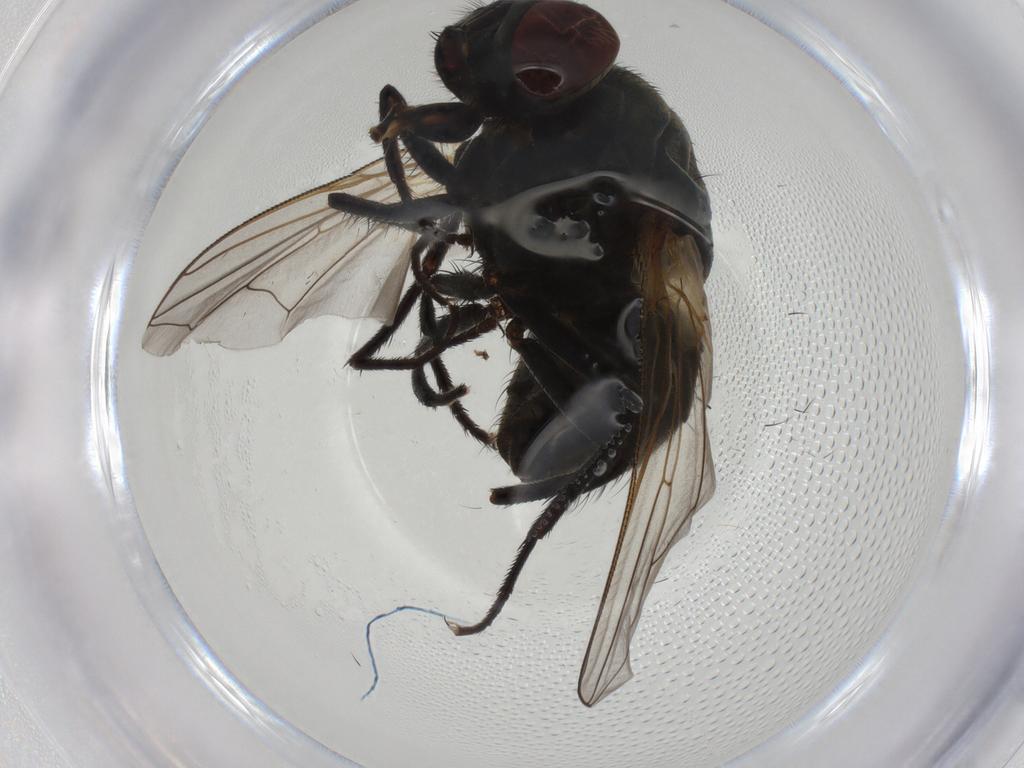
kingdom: Animalia
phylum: Arthropoda
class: Insecta
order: Diptera
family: Muscidae
